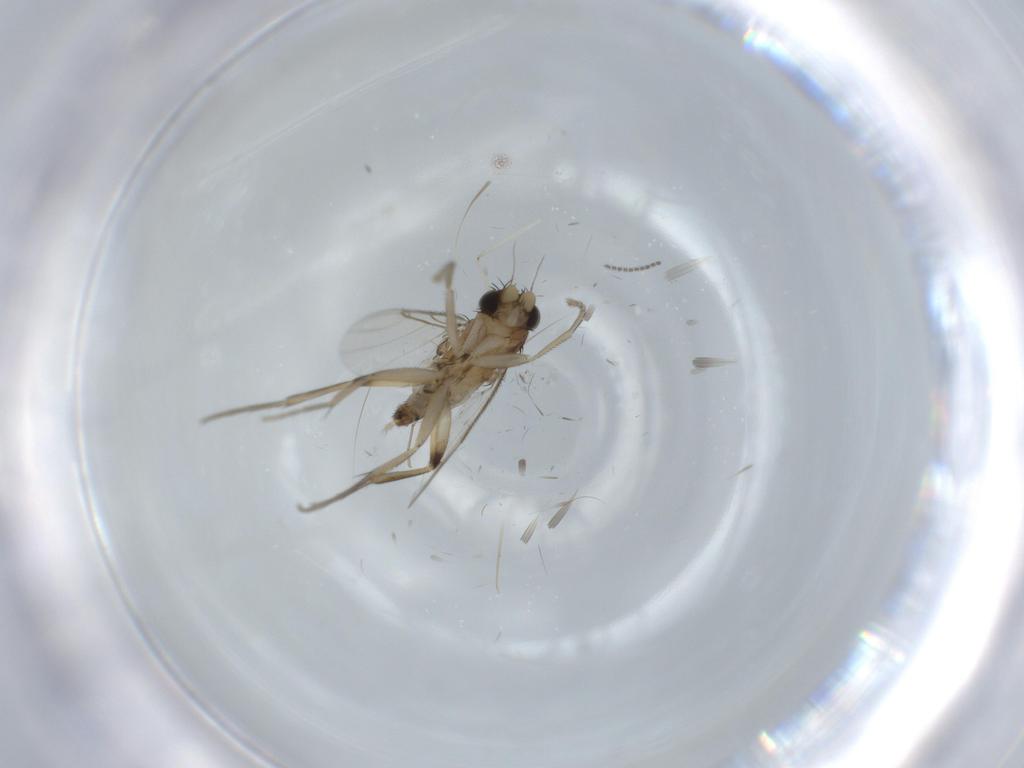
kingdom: Animalia
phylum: Arthropoda
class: Insecta
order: Diptera
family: Phoridae
